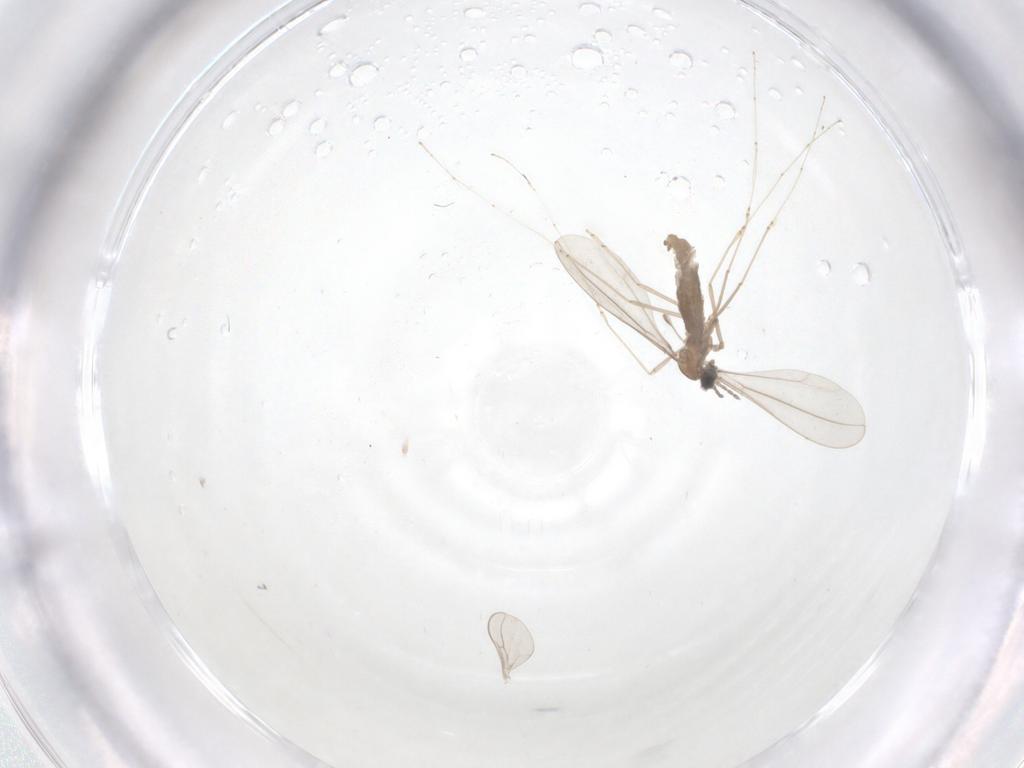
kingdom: Animalia
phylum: Arthropoda
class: Insecta
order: Diptera
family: Cecidomyiidae
